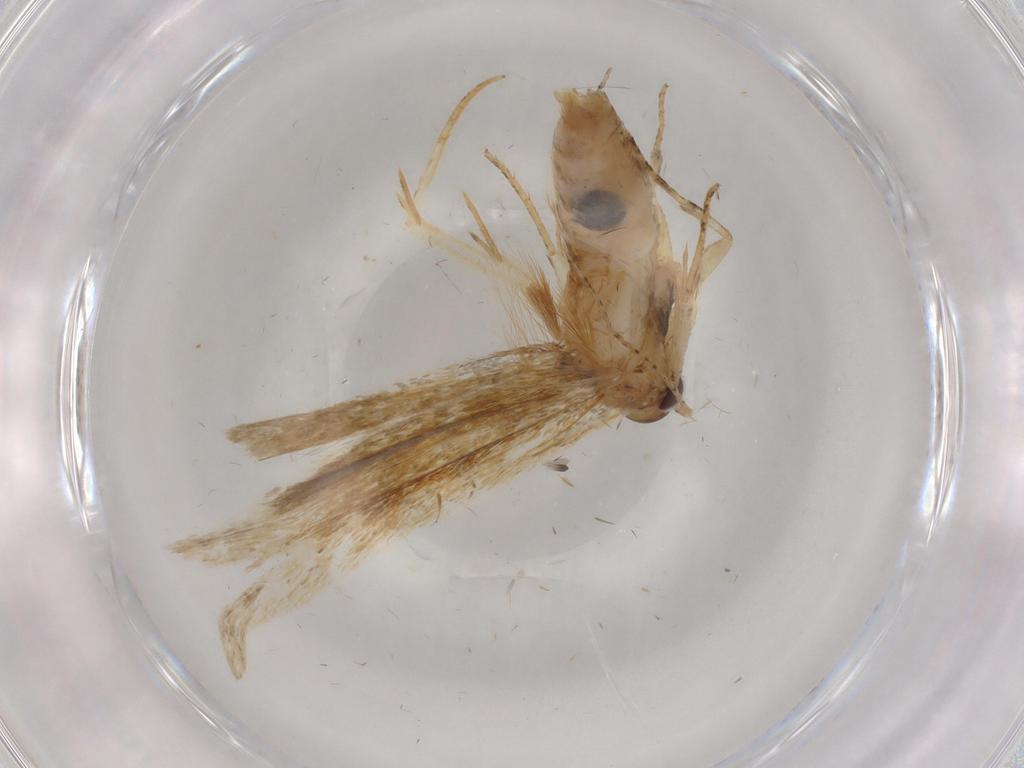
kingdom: Animalia
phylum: Arthropoda
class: Insecta
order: Lepidoptera
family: Gelechiidae
